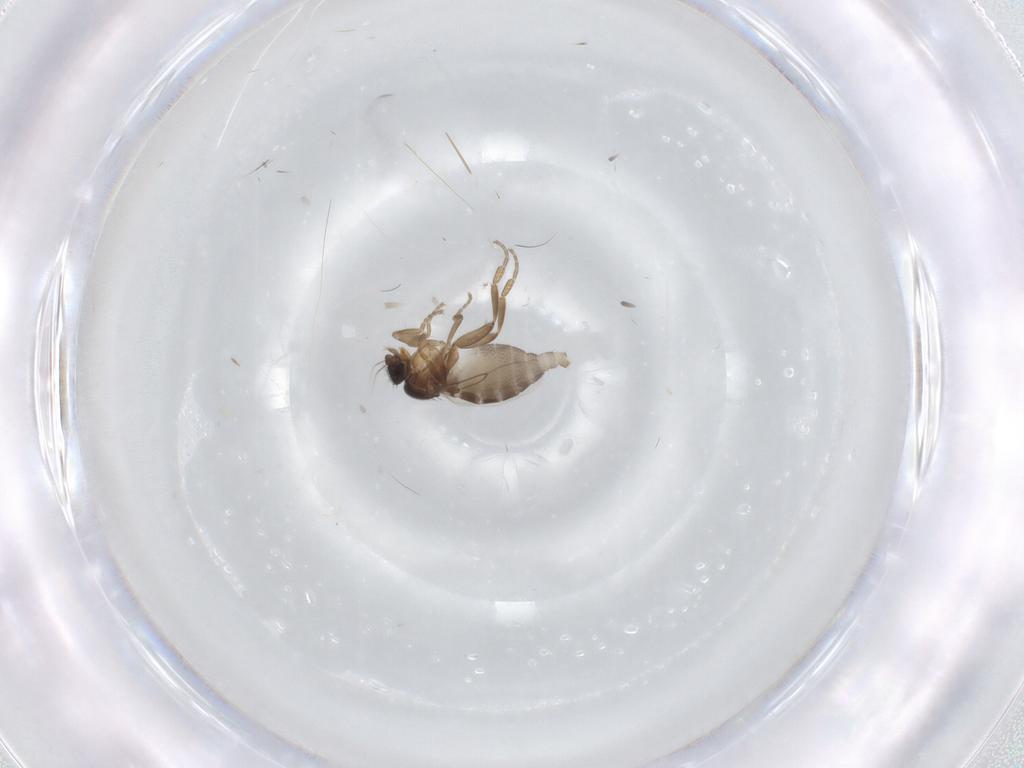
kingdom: Animalia
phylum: Arthropoda
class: Insecta
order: Diptera
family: Phoridae
